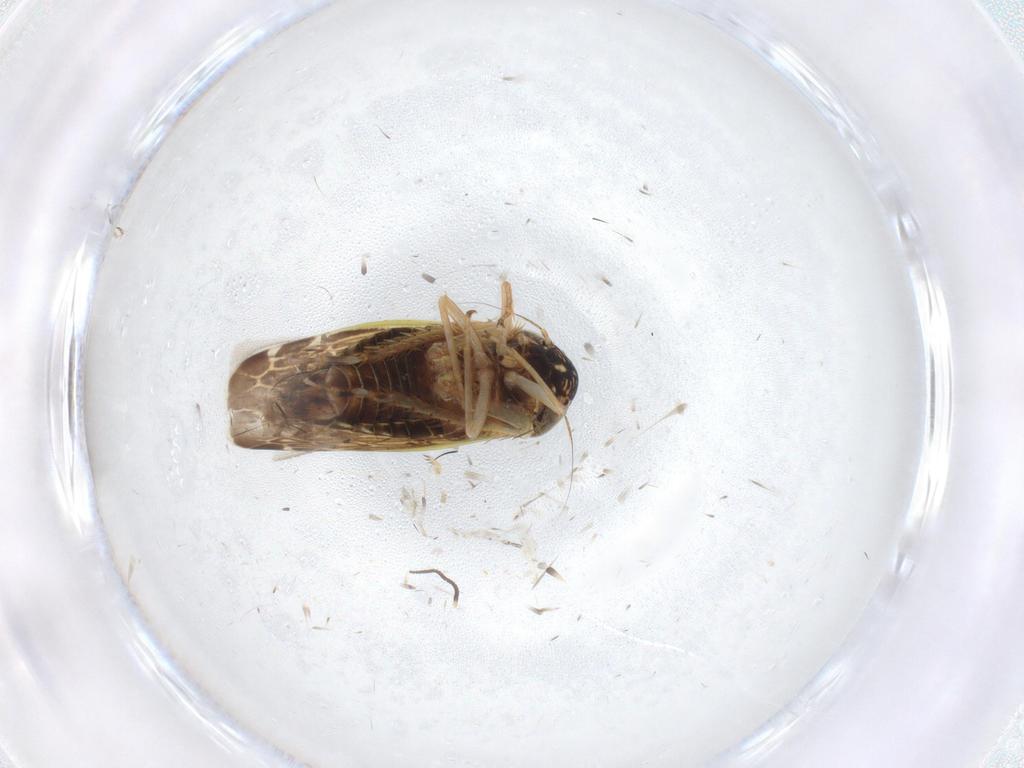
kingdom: Animalia
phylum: Arthropoda
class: Insecta
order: Hemiptera
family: Cicadellidae
